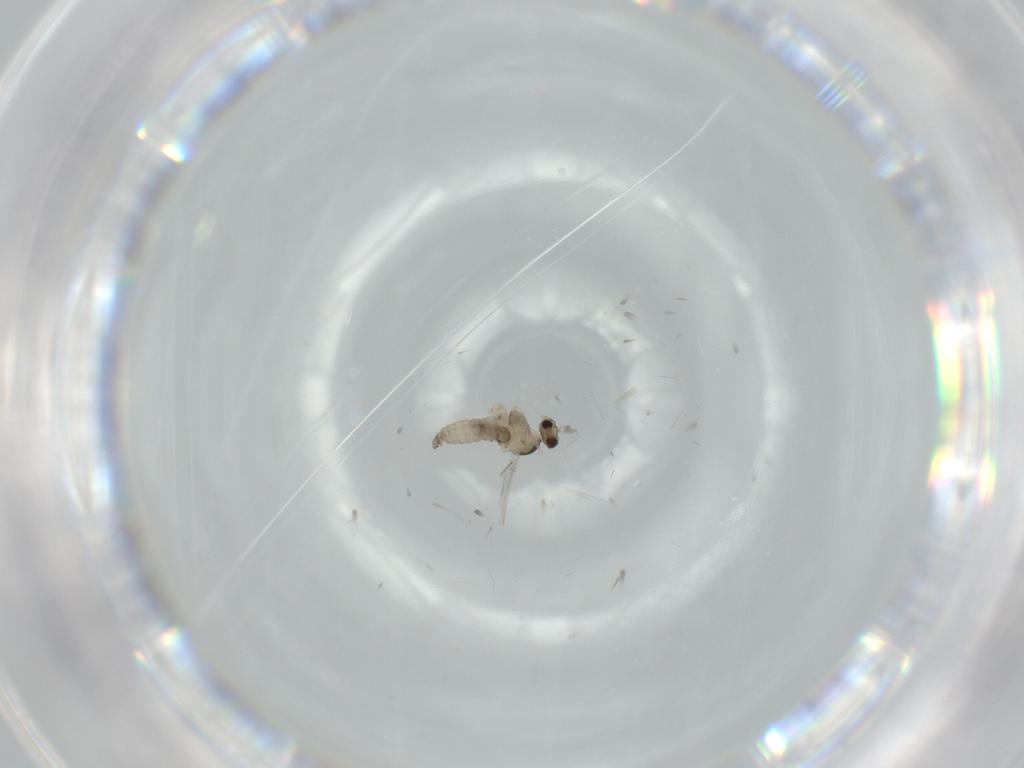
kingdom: Animalia
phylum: Arthropoda
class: Insecta
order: Diptera
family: Cecidomyiidae
